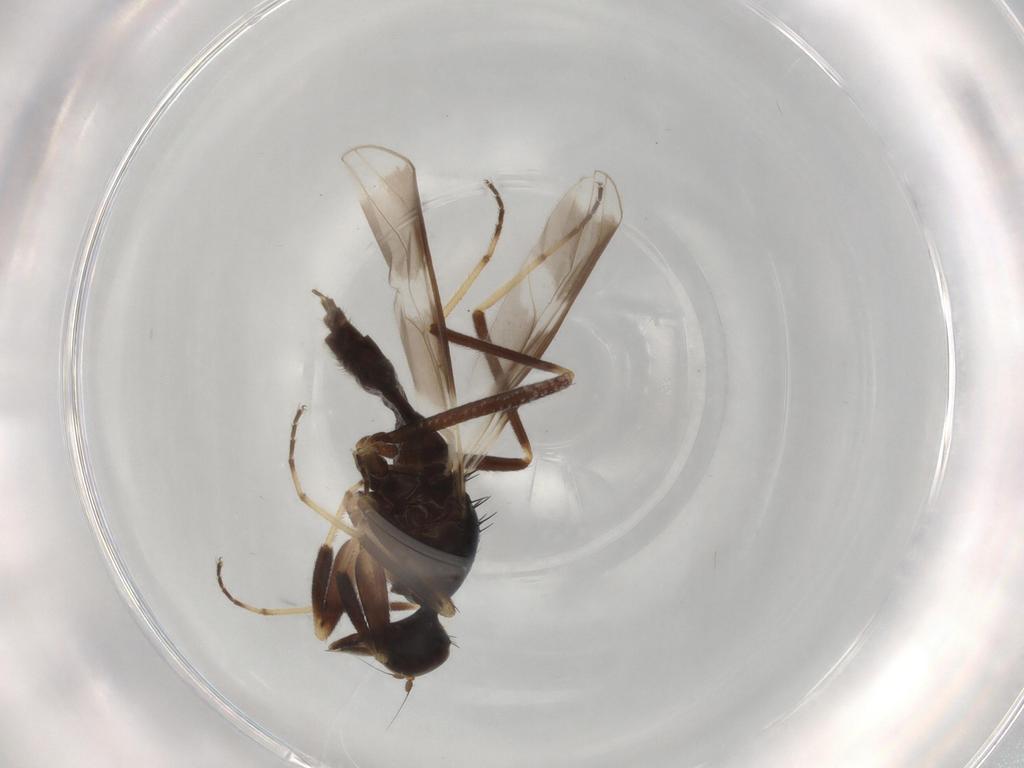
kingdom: Animalia
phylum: Arthropoda
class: Insecta
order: Diptera
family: Hybotidae
